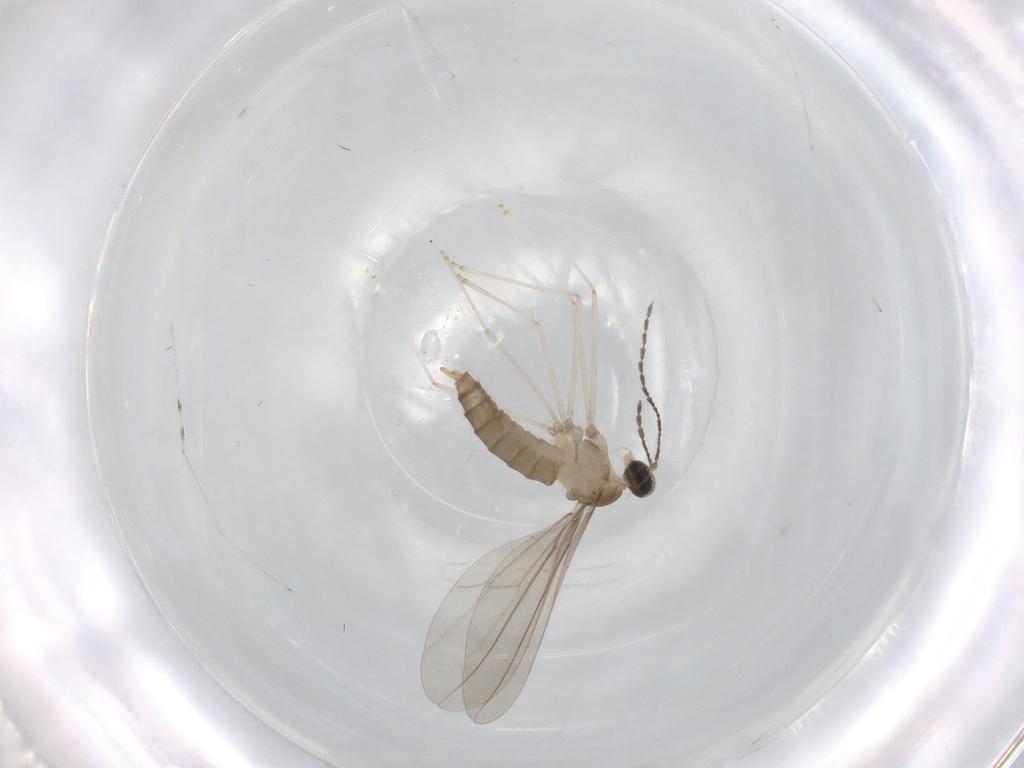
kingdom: Animalia
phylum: Arthropoda
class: Insecta
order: Diptera
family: Cecidomyiidae
